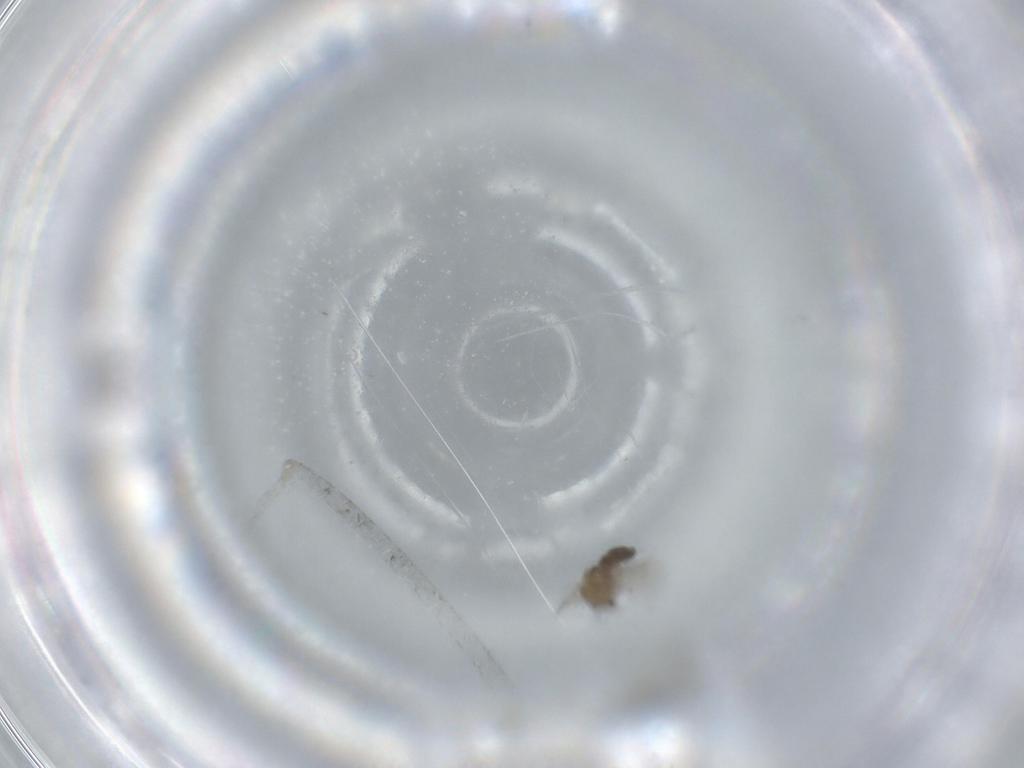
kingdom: Animalia
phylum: Arthropoda
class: Insecta
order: Diptera
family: Chironomidae
